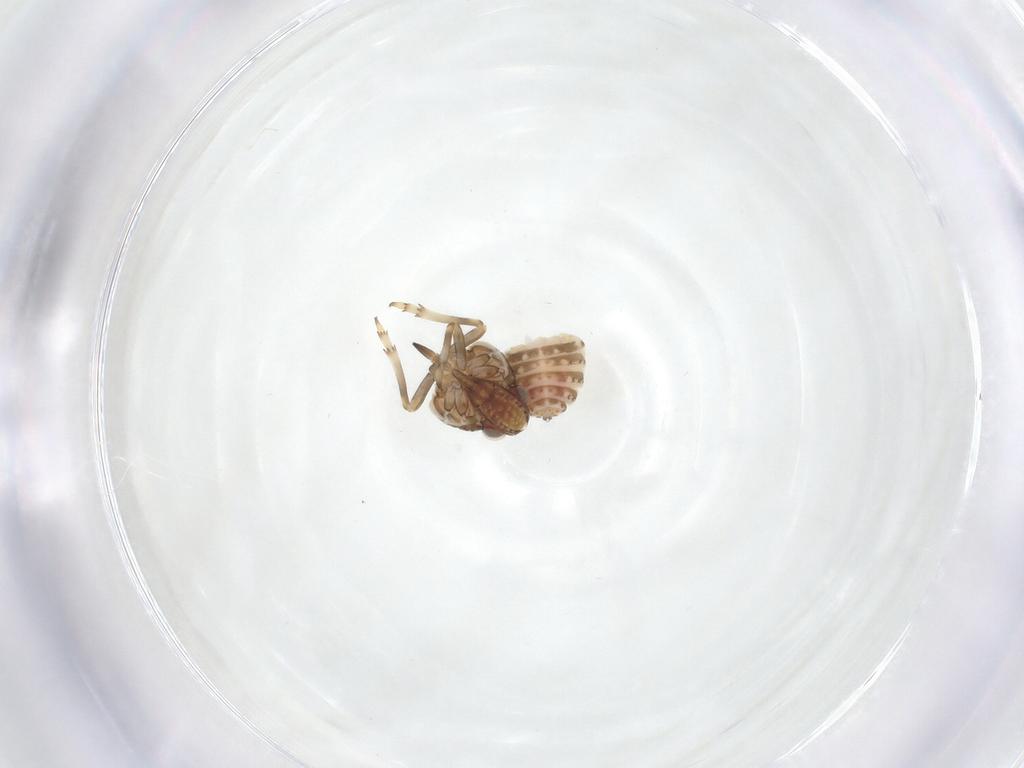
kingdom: Animalia
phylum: Arthropoda
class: Insecta
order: Hemiptera
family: Tropiduchidae
